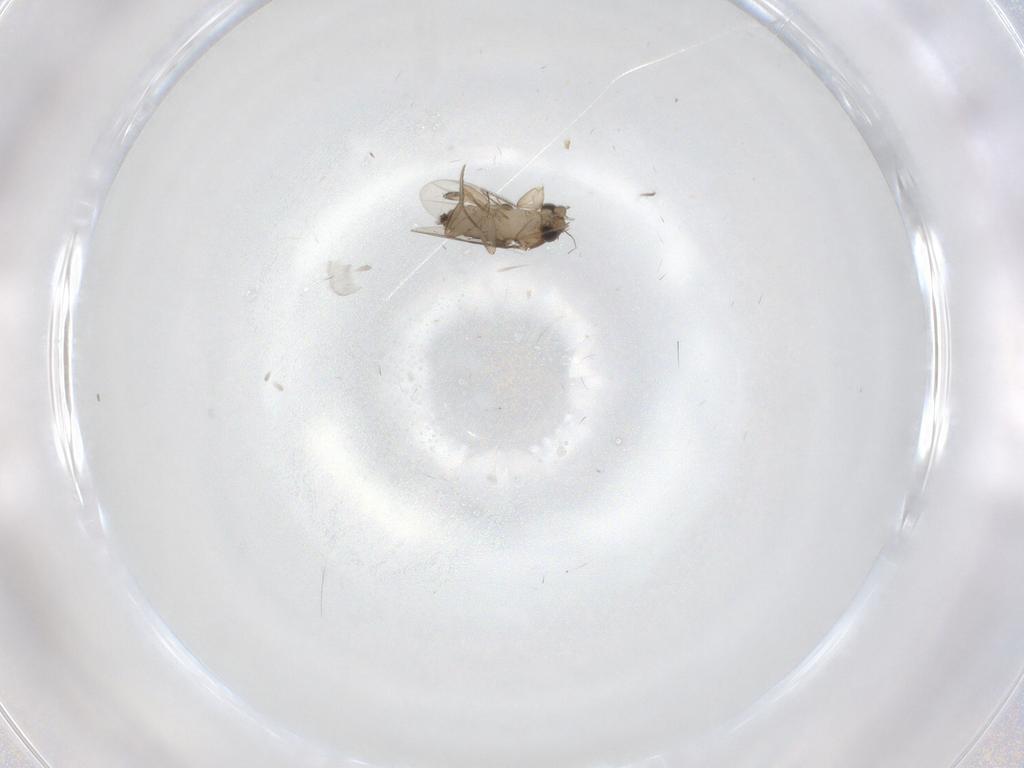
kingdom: Animalia
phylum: Arthropoda
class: Insecta
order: Diptera
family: Phoridae
